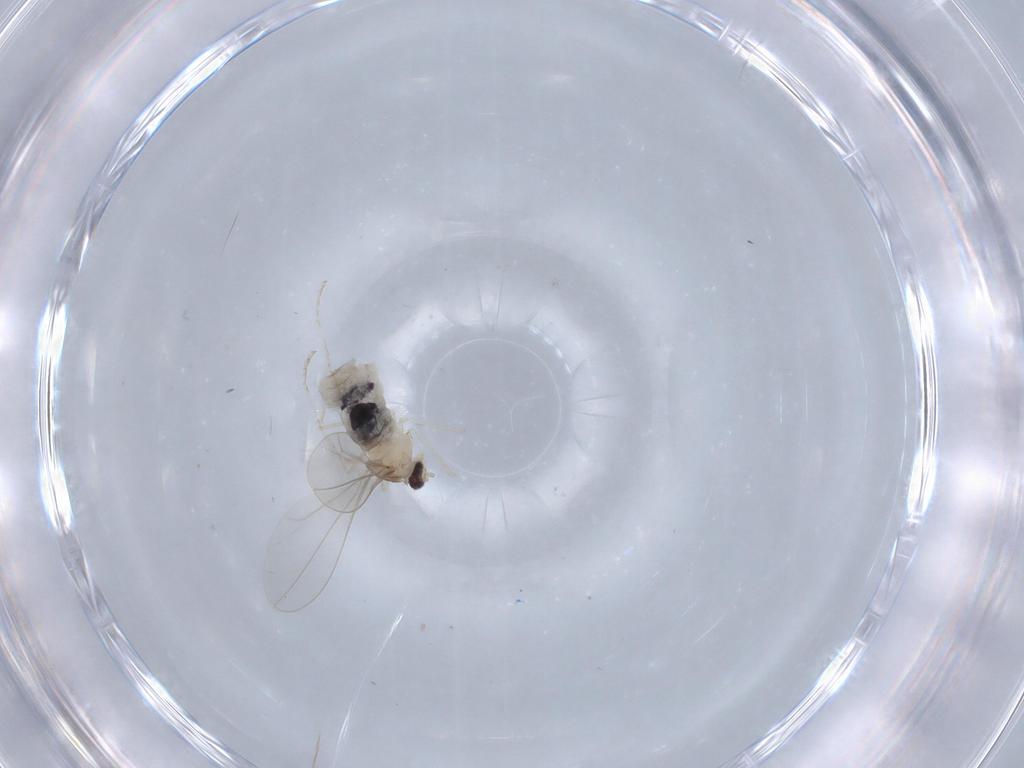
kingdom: Animalia
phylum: Arthropoda
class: Insecta
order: Diptera
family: Cecidomyiidae
